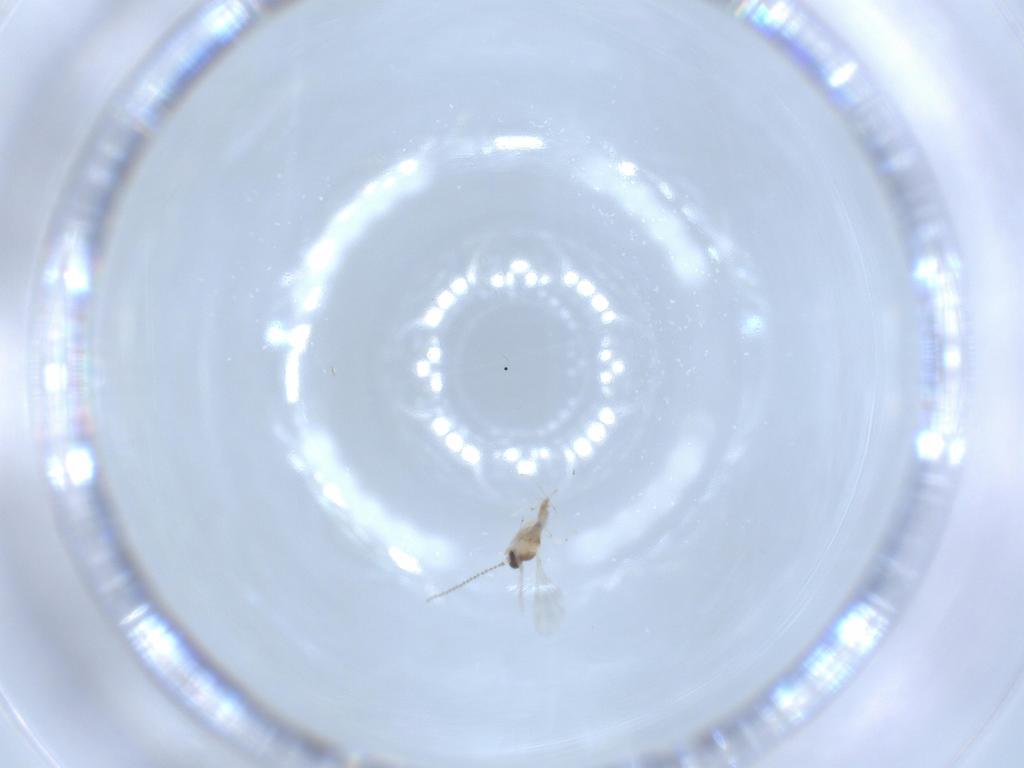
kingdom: Animalia
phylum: Arthropoda
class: Insecta
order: Diptera
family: Cecidomyiidae
